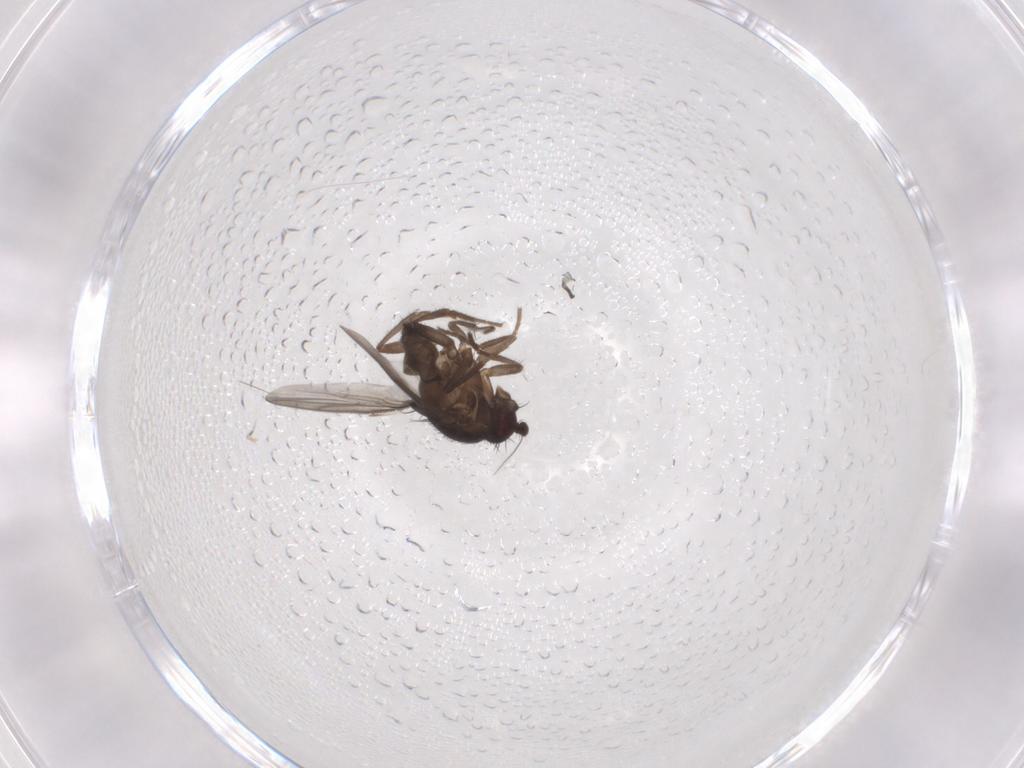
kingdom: Animalia
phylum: Arthropoda
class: Insecta
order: Diptera
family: Sphaeroceridae
